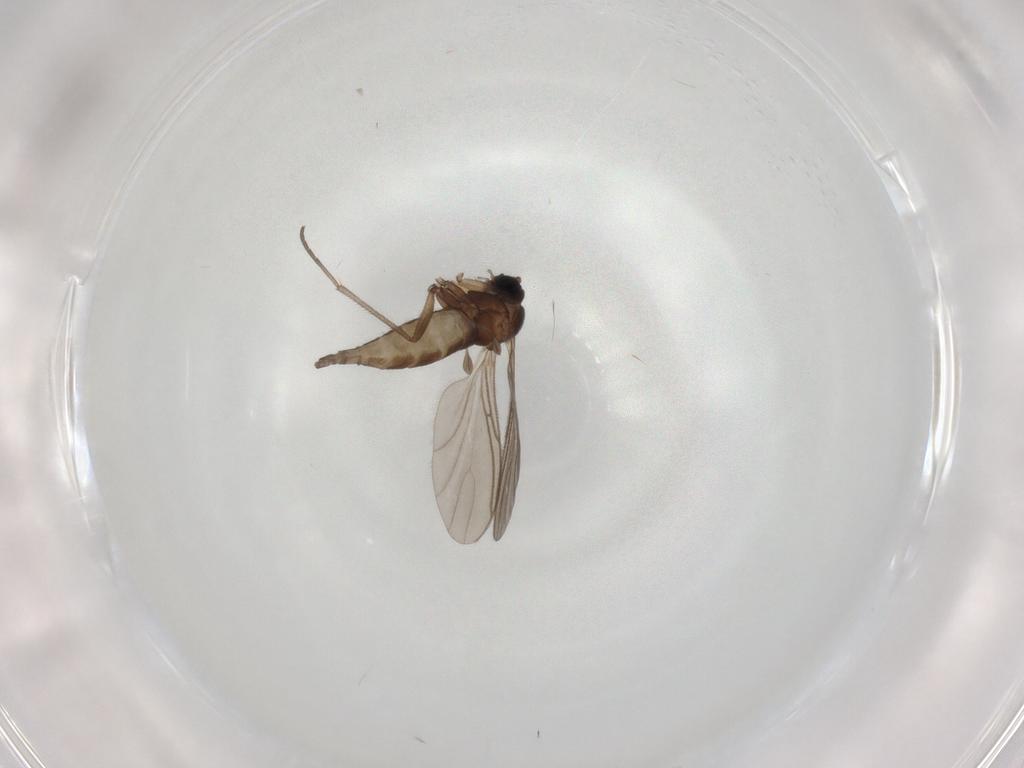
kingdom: Animalia
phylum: Arthropoda
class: Insecta
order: Diptera
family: Sciaridae
